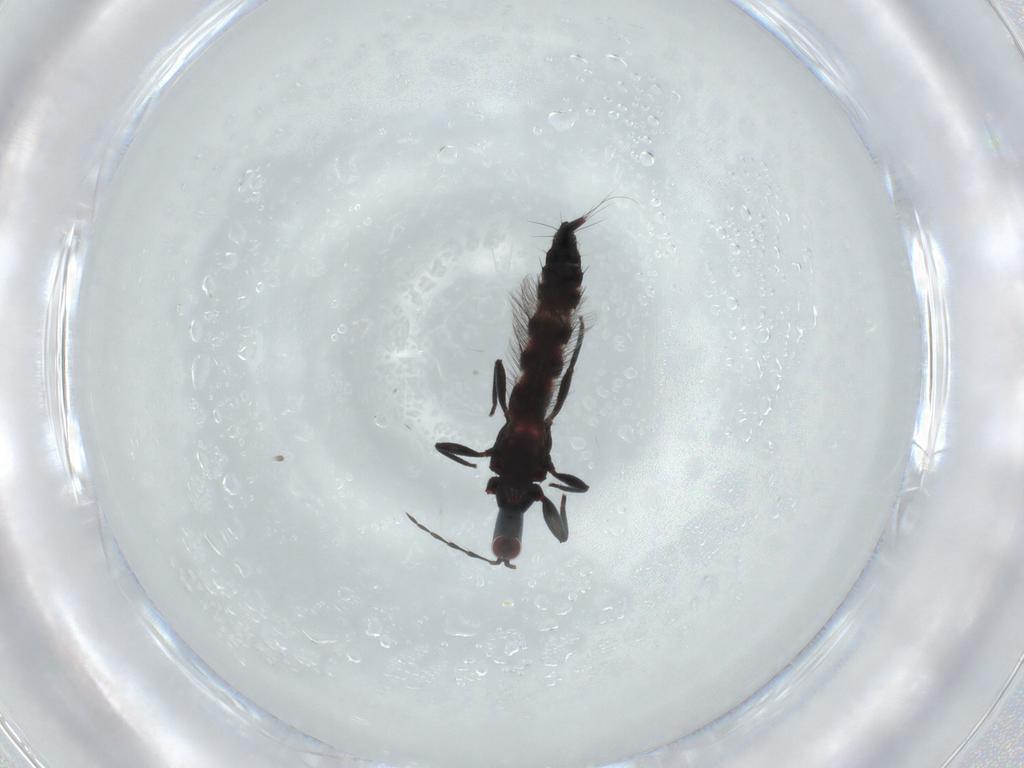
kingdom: Animalia
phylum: Arthropoda
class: Insecta
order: Thysanoptera
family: Phlaeothripidae
